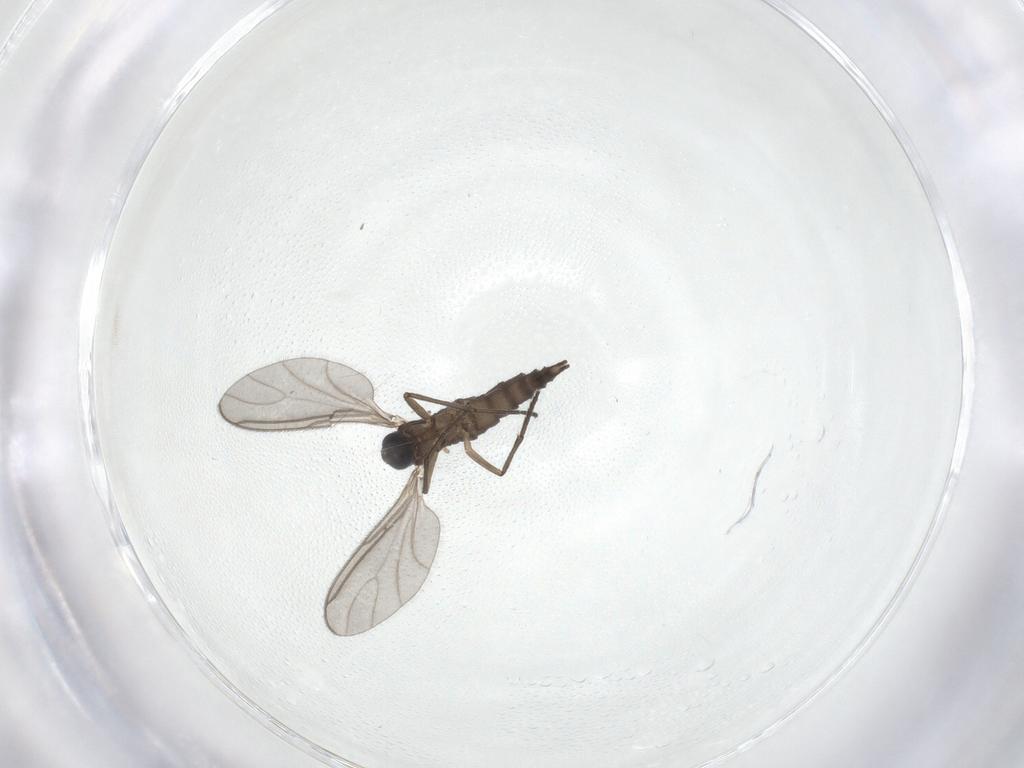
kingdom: Animalia
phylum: Arthropoda
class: Insecta
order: Diptera
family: Sciaridae
